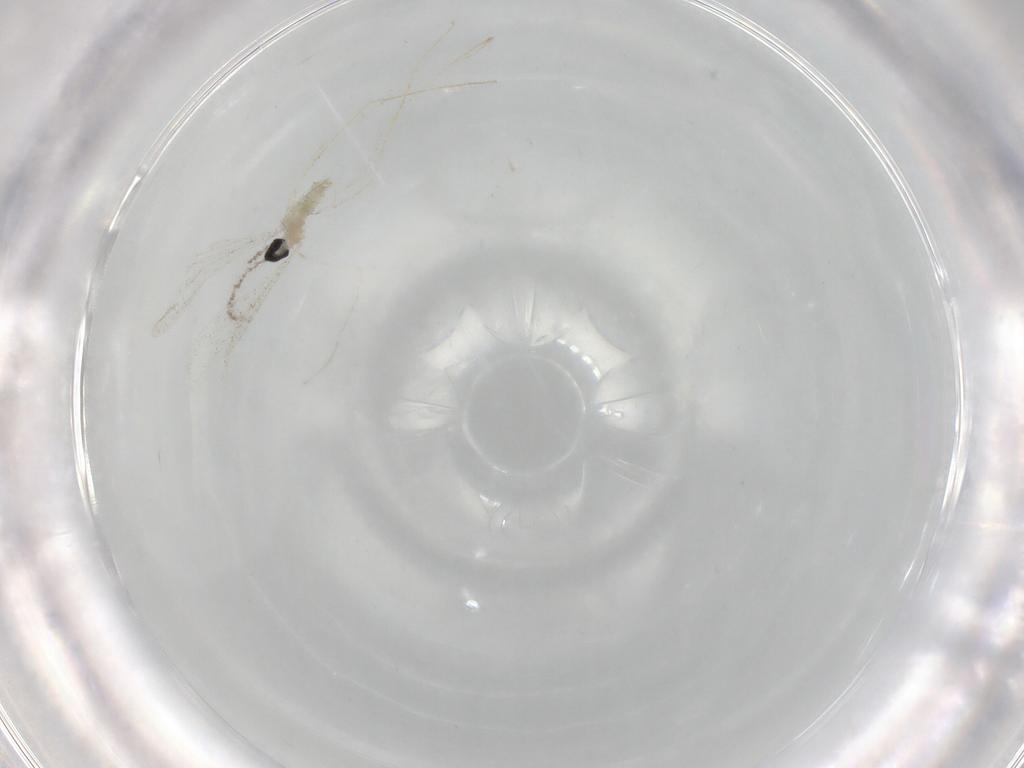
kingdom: Animalia
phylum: Arthropoda
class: Insecta
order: Diptera
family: Cecidomyiidae
